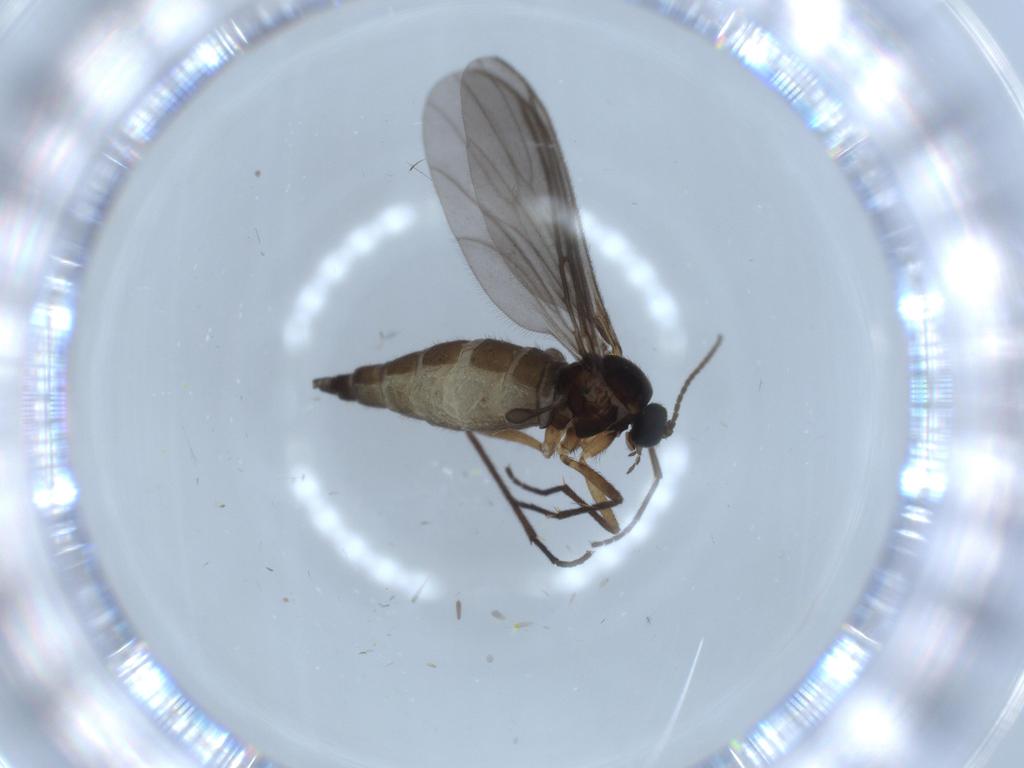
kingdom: Animalia
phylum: Arthropoda
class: Insecta
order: Diptera
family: Sciaridae
